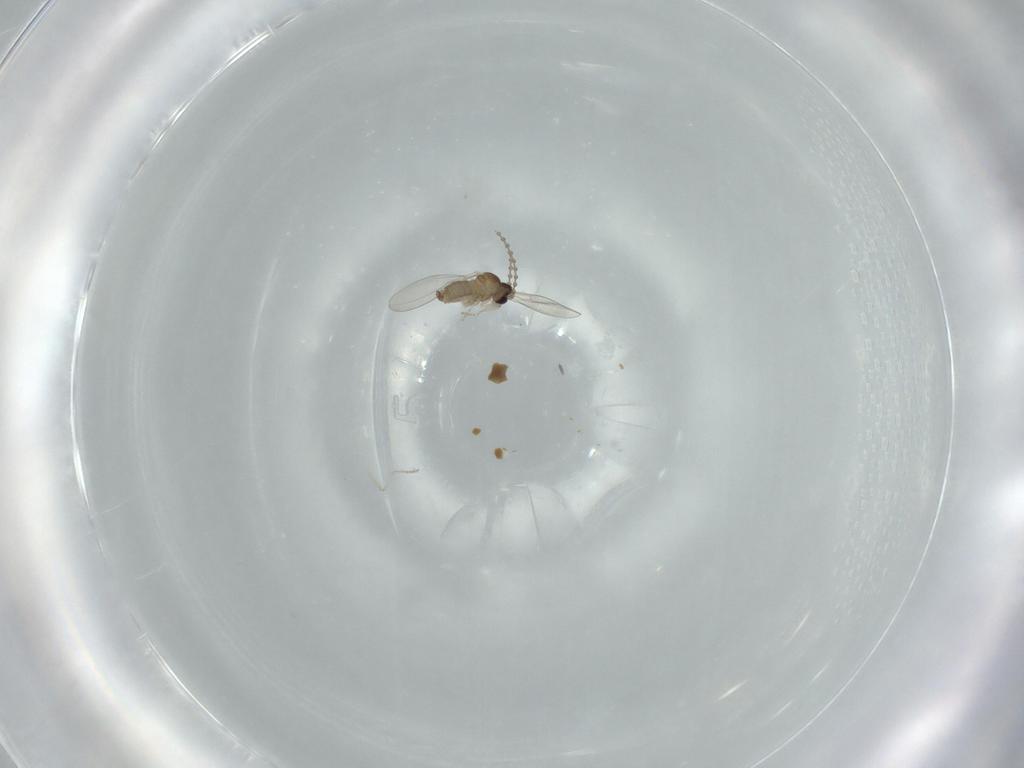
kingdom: Animalia
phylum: Arthropoda
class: Insecta
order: Diptera
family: Cecidomyiidae
